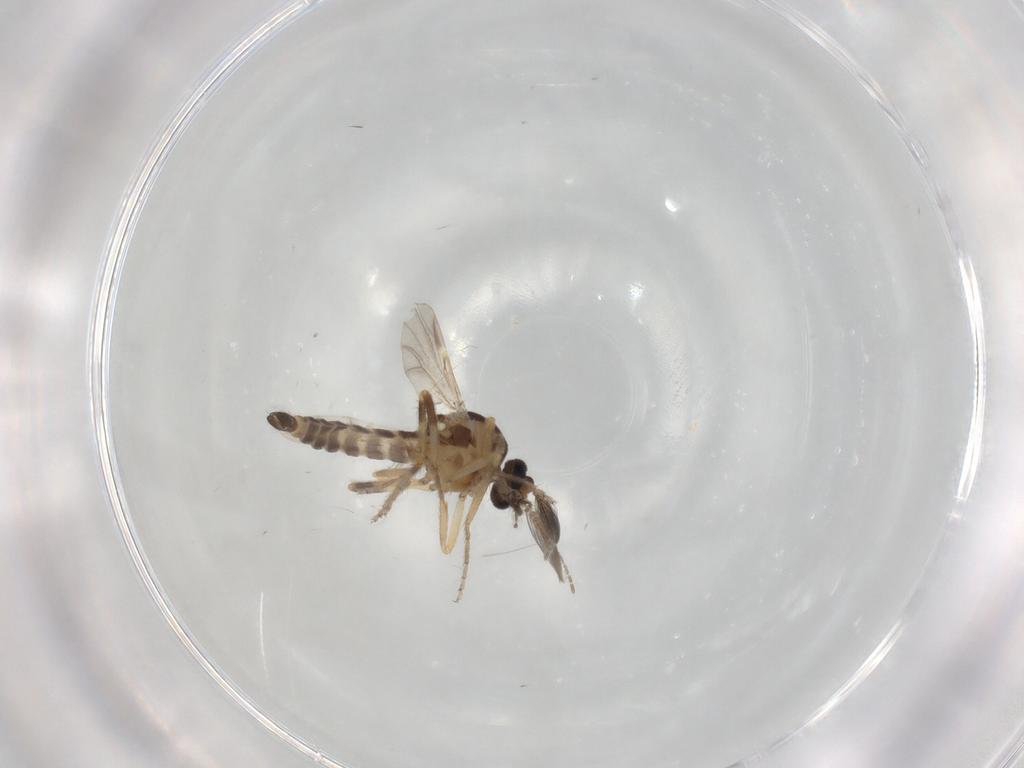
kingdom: Animalia
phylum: Arthropoda
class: Insecta
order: Diptera
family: Ceratopogonidae
